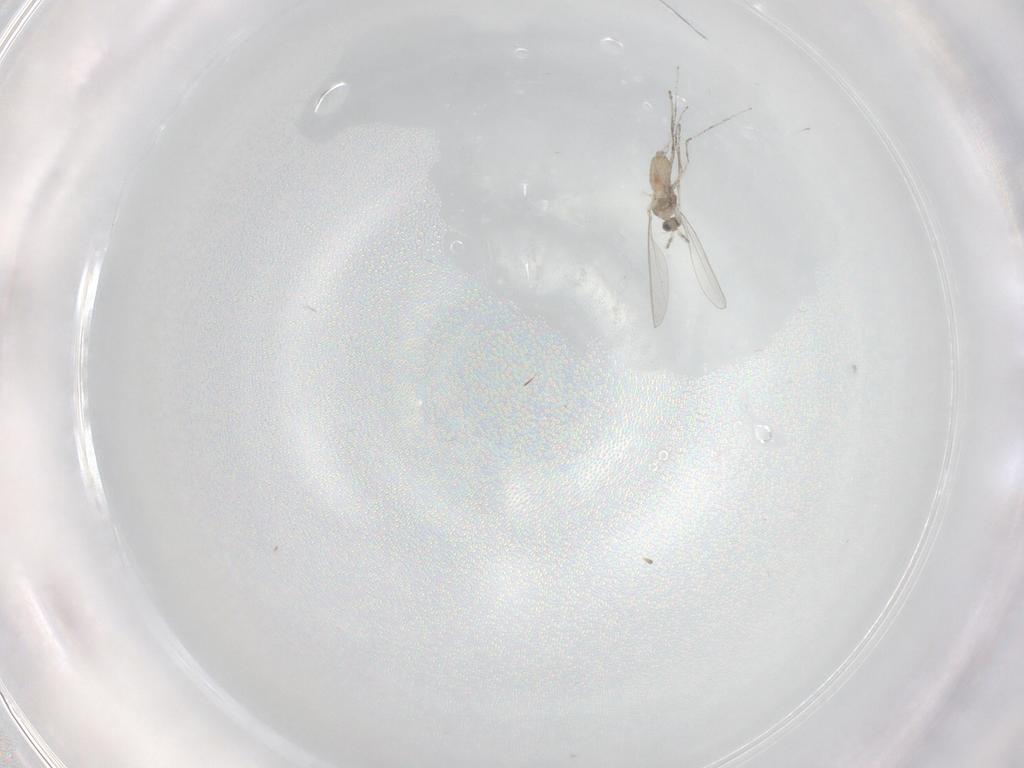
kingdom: Animalia
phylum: Arthropoda
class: Insecta
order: Diptera
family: Cecidomyiidae
